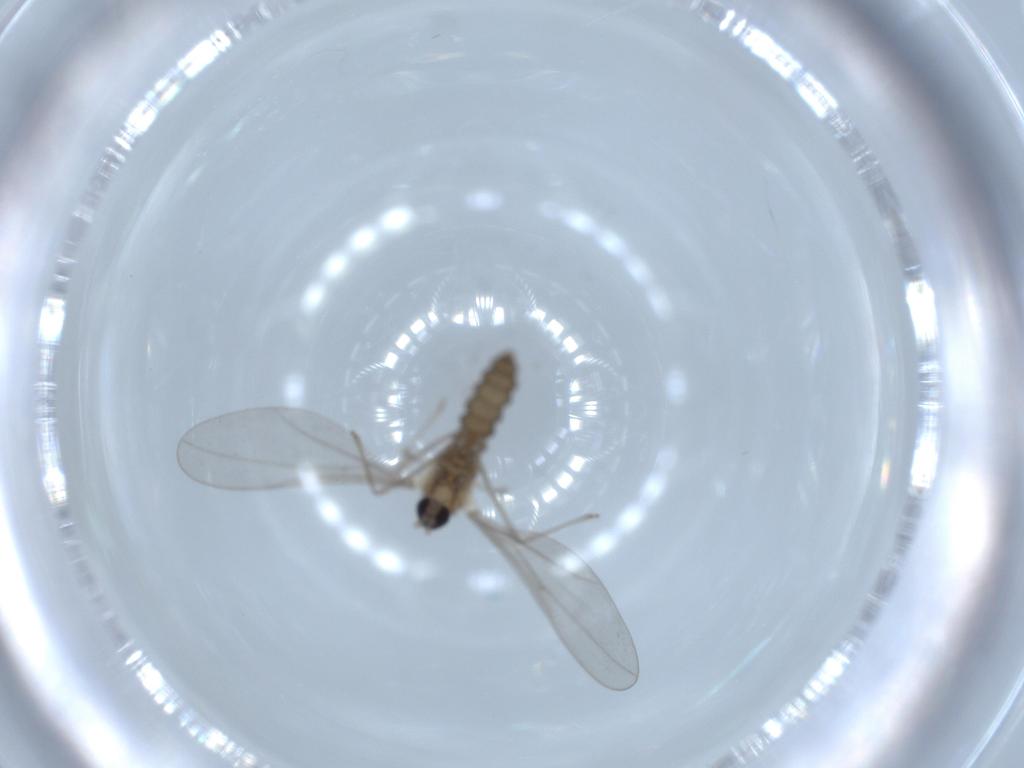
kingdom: Animalia
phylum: Arthropoda
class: Insecta
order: Diptera
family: Cecidomyiidae
